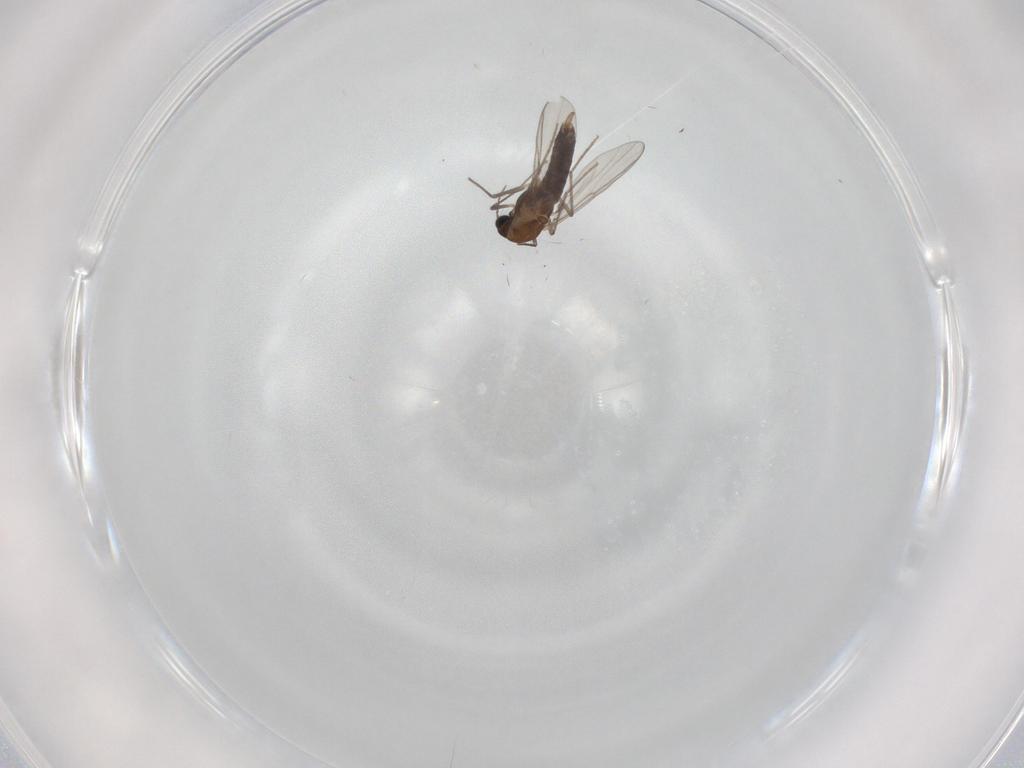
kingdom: Animalia
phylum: Arthropoda
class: Insecta
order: Diptera
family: Chironomidae
